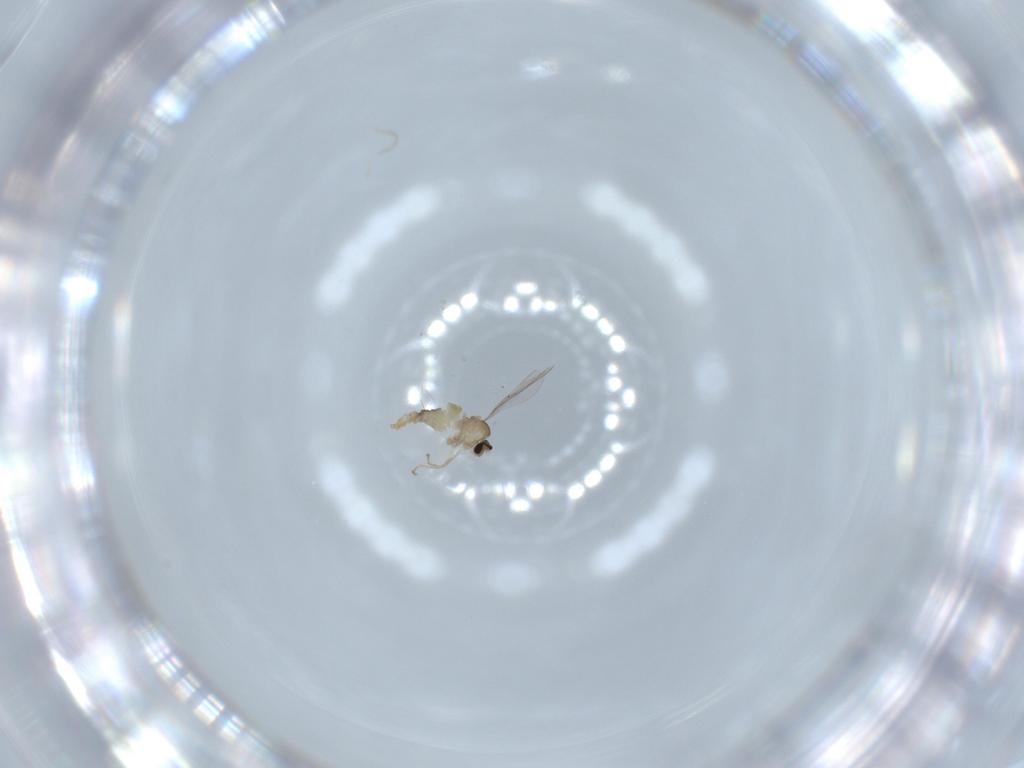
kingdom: Animalia
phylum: Arthropoda
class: Insecta
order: Diptera
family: Cecidomyiidae
